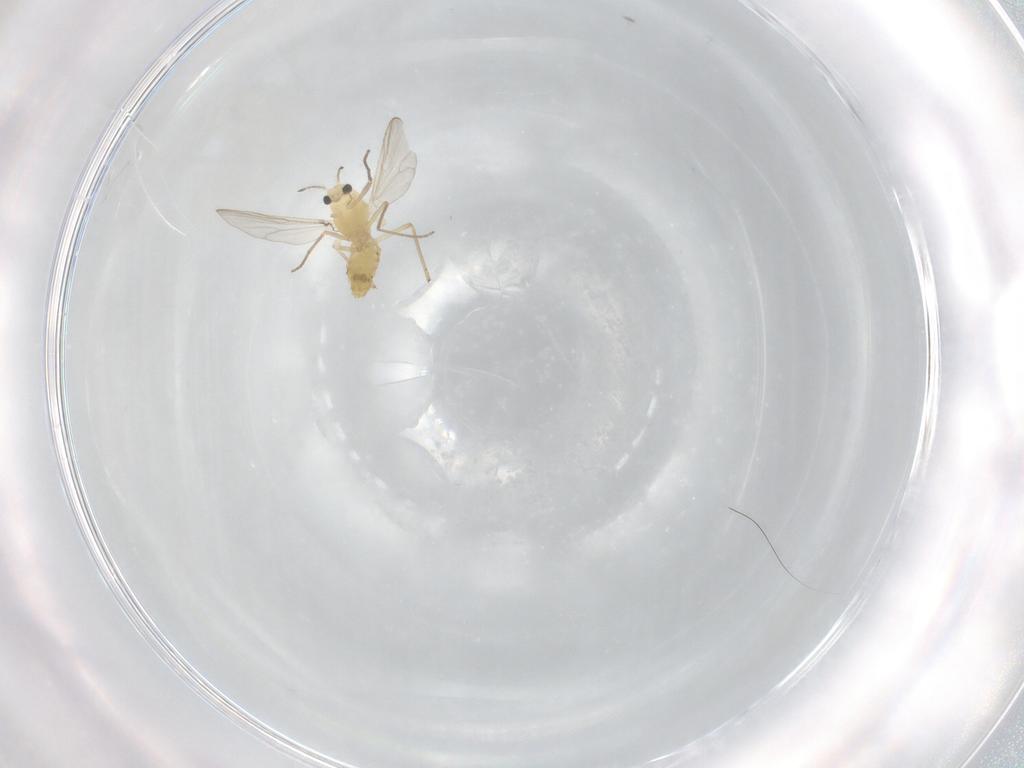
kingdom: Animalia
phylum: Arthropoda
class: Insecta
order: Diptera
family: Chironomidae
